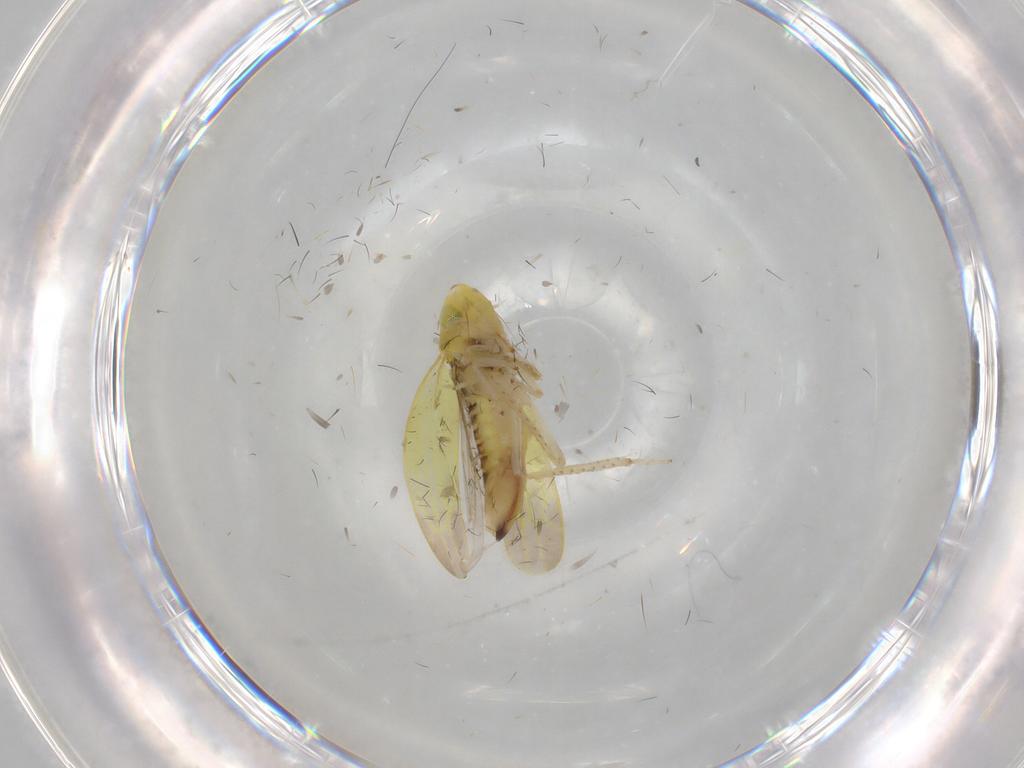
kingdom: Animalia
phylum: Arthropoda
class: Insecta
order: Hemiptera
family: Cicadellidae
